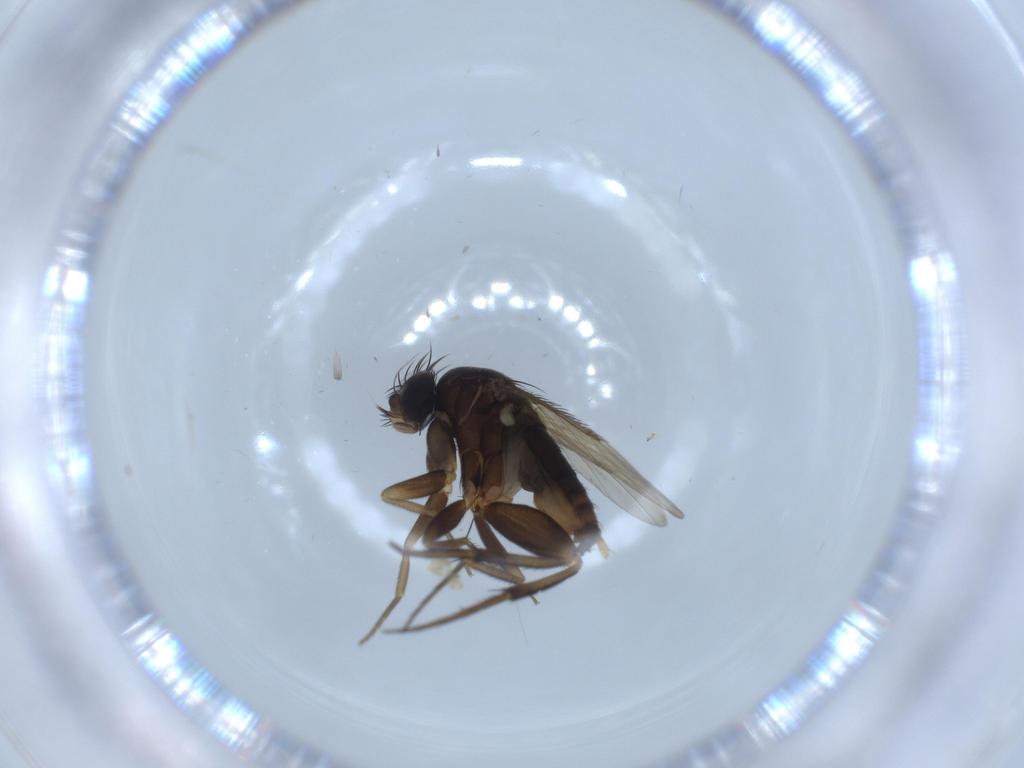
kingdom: Animalia
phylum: Arthropoda
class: Insecta
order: Diptera
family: Phoridae
